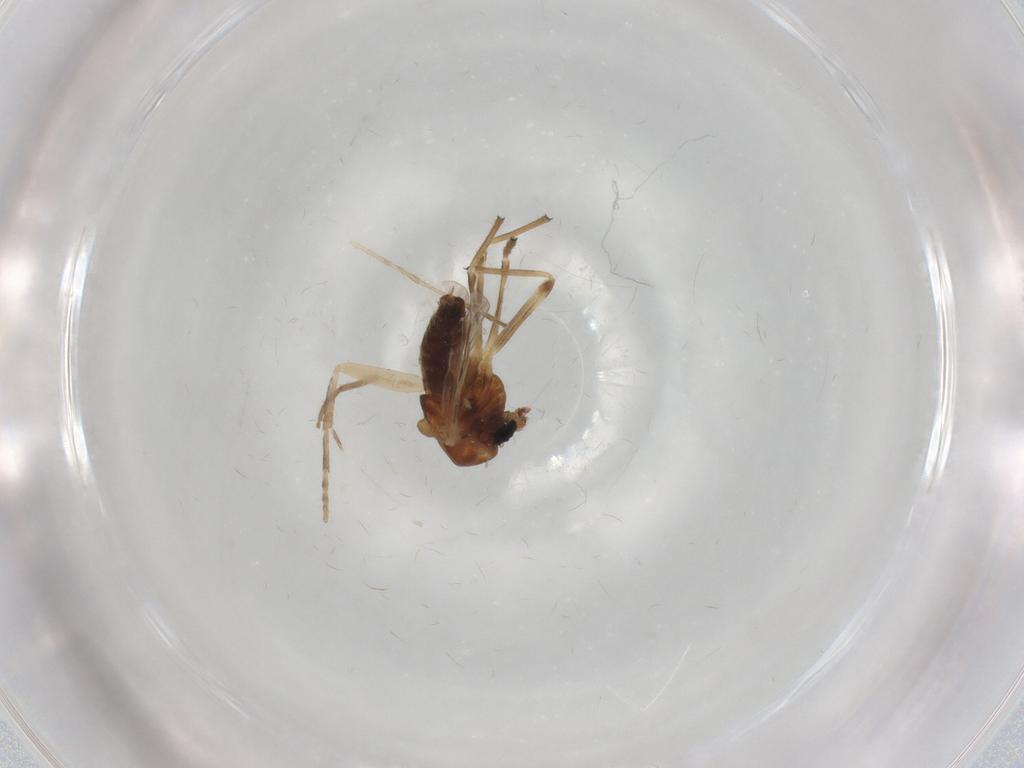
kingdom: Animalia
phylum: Arthropoda
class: Insecta
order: Diptera
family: Chironomidae
